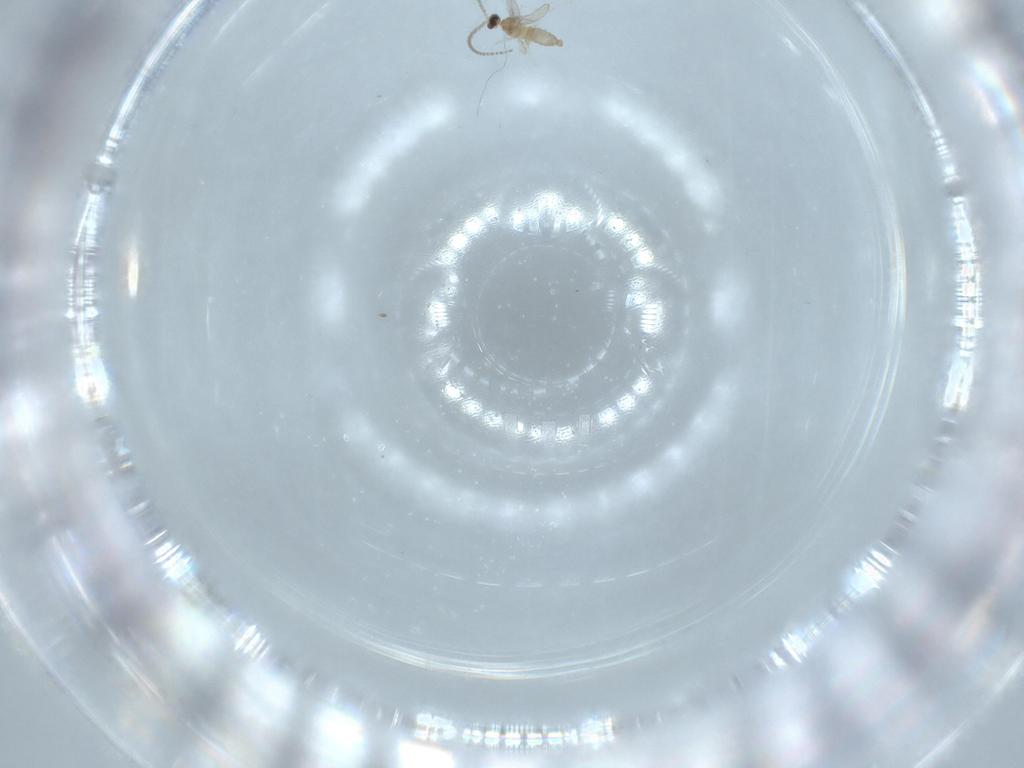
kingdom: Animalia
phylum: Arthropoda
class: Insecta
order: Diptera
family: Cecidomyiidae
